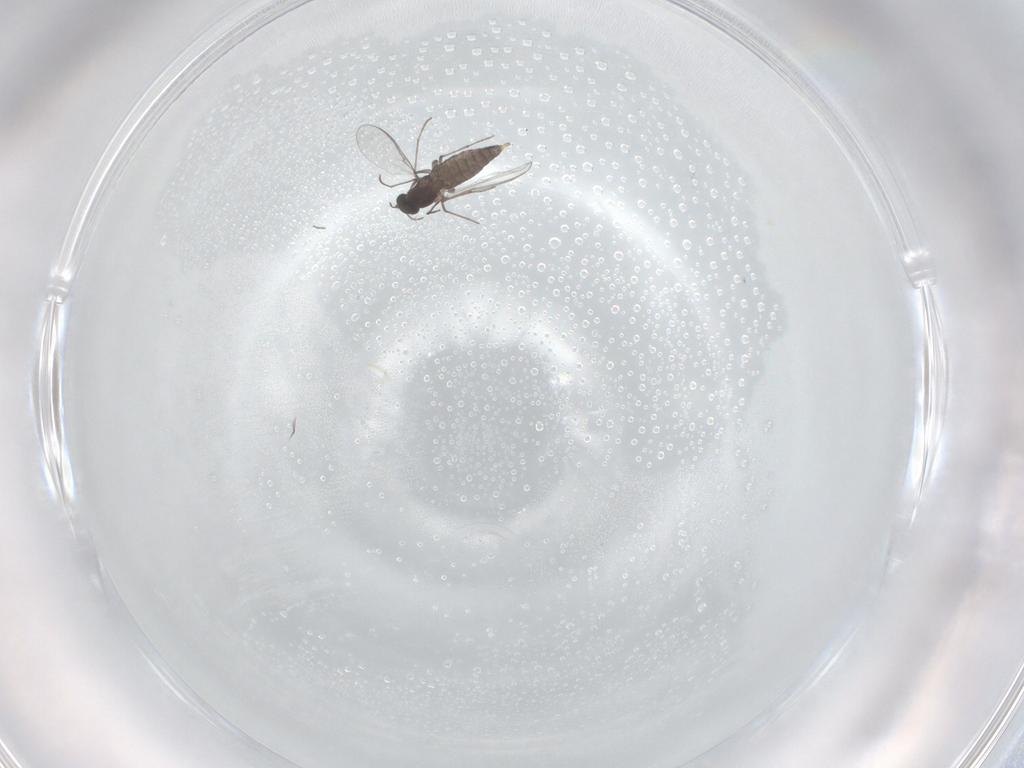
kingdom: Animalia
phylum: Arthropoda
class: Insecta
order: Diptera
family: Chironomidae
